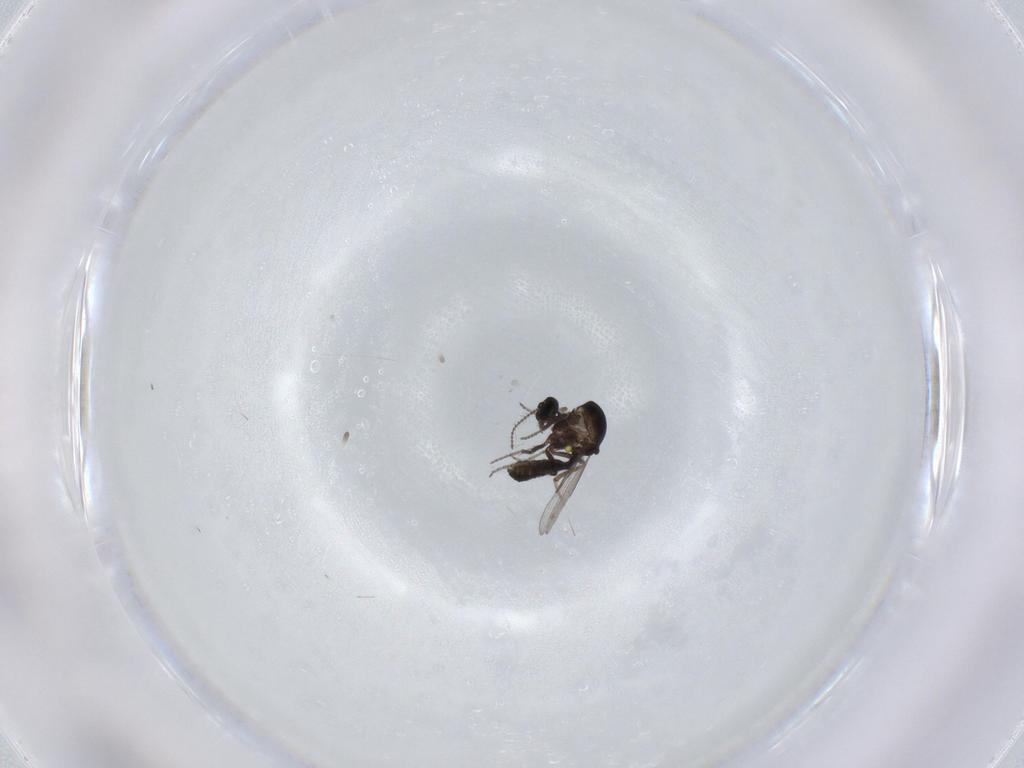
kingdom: Animalia
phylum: Arthropoda
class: Insecta
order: Diptera
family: Ceratopogonidae
